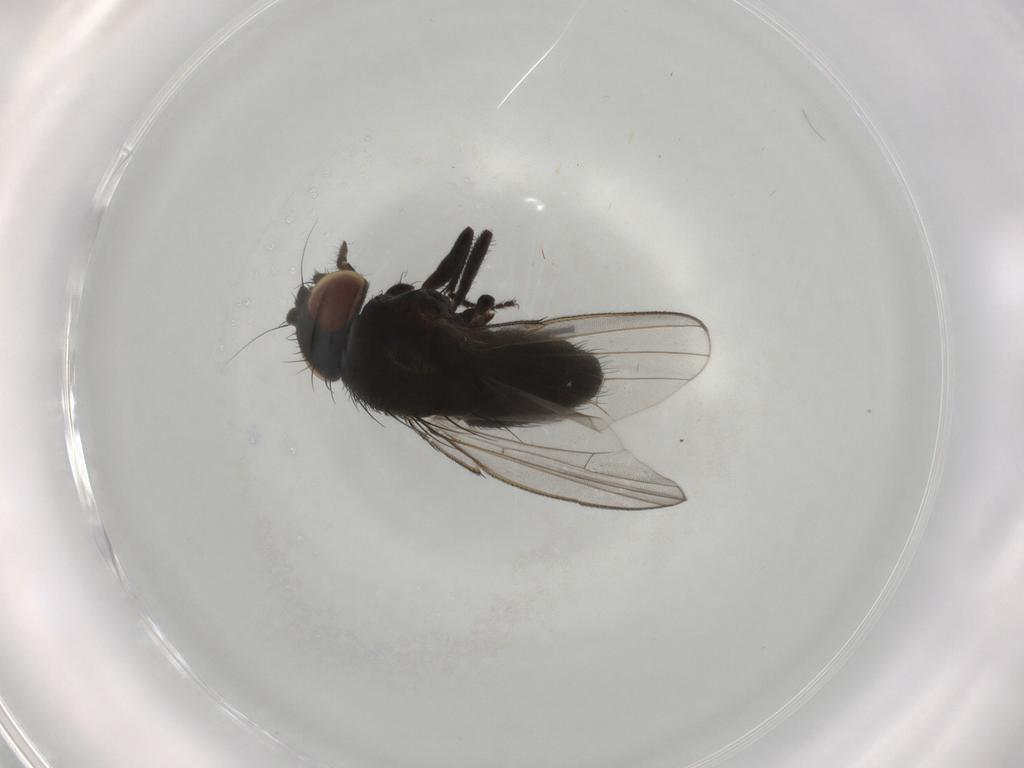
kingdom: Animalia
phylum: Arthropoda
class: Insecta
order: Diptera
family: Milichiidae
